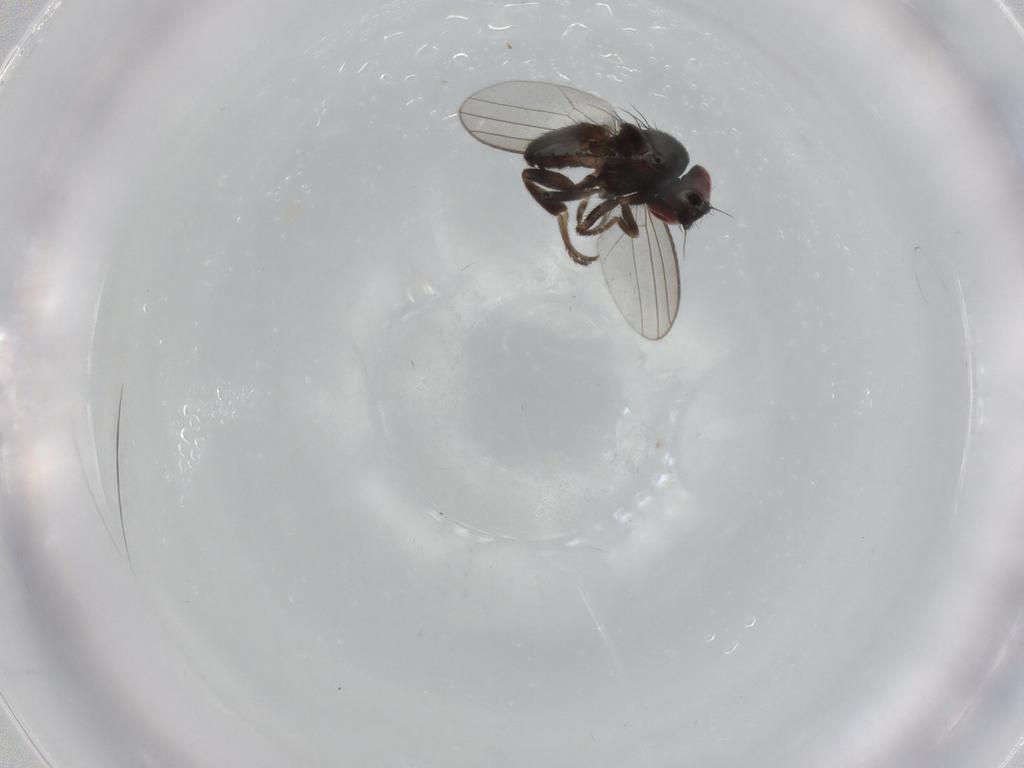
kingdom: Animalia
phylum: Arthropoda
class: Insecta
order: Diptera
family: Milichiidae
